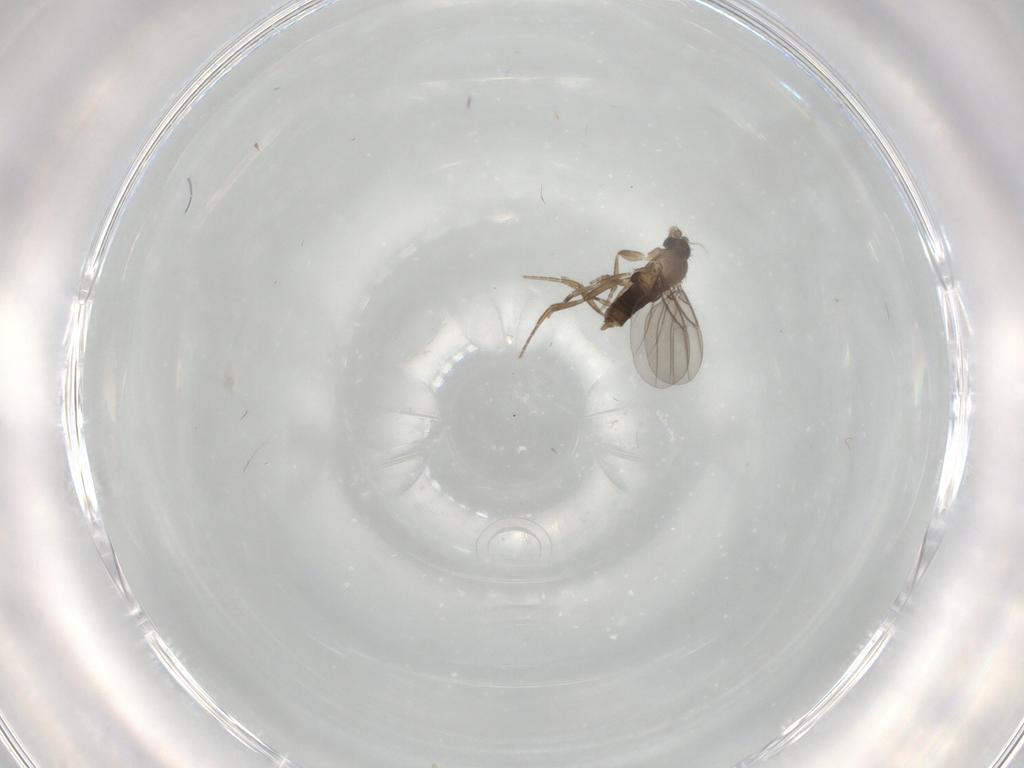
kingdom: Animalia
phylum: Arthropoda
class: Insecta
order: Diptera
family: Phoridae
